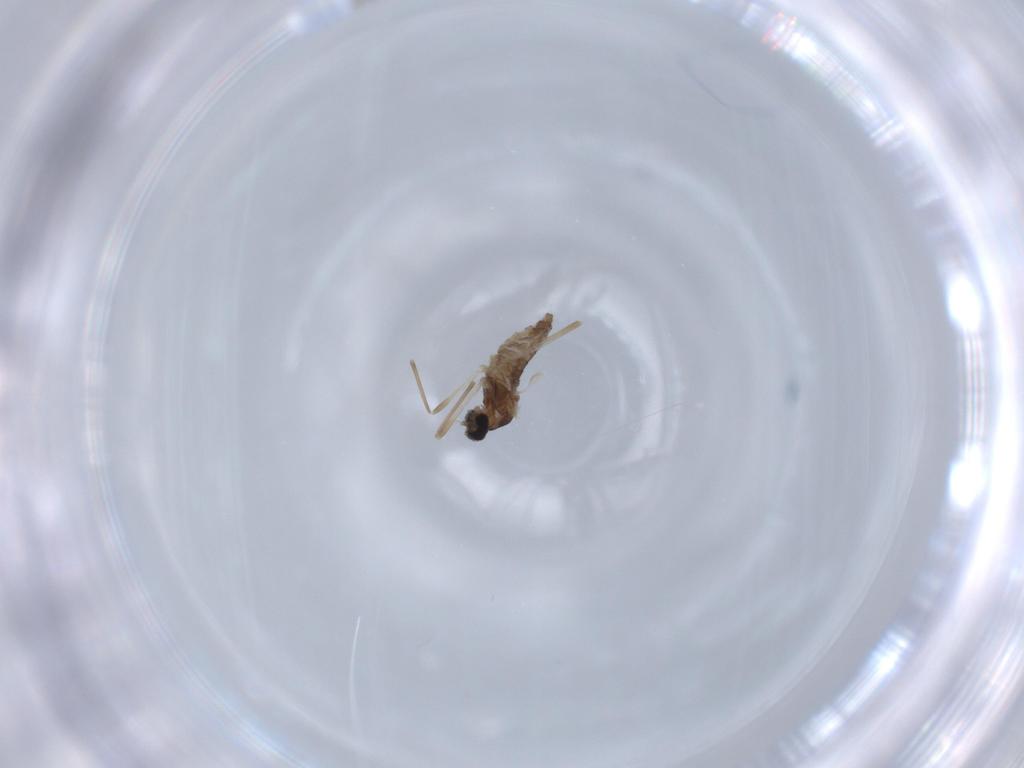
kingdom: Animalia
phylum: Arthropoda
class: Insecta
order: Diptera
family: Cecidomyiidae
